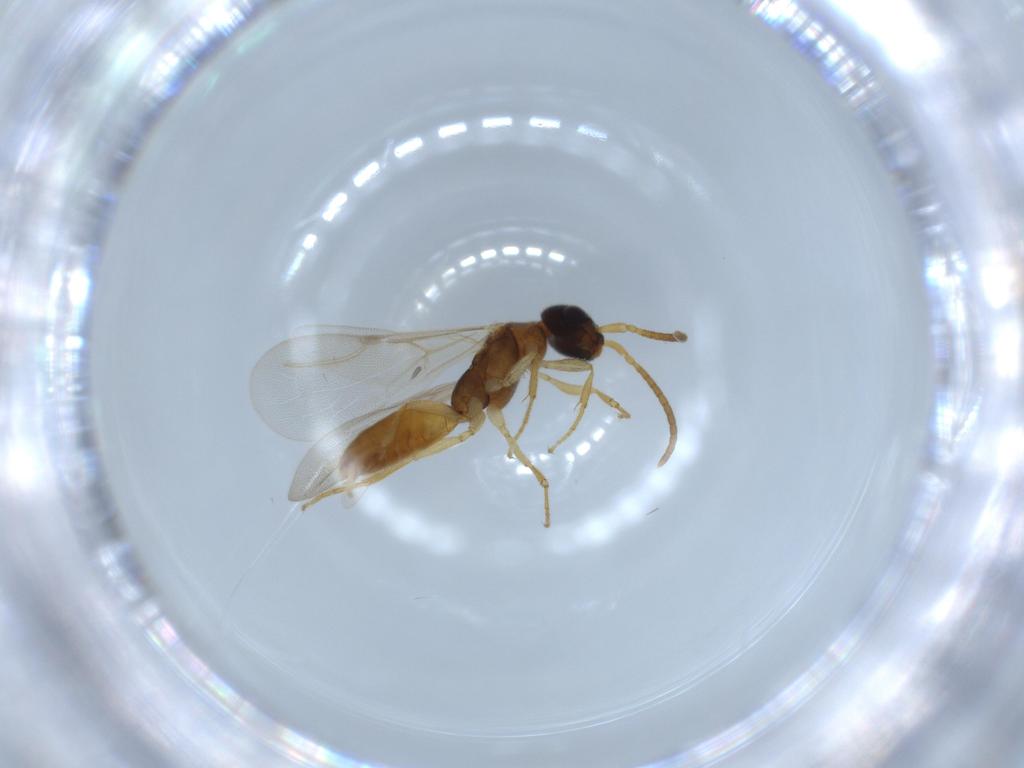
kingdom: Animalia
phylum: Arthropoda
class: Insecta
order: Hymenoptera
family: Bethylidae
